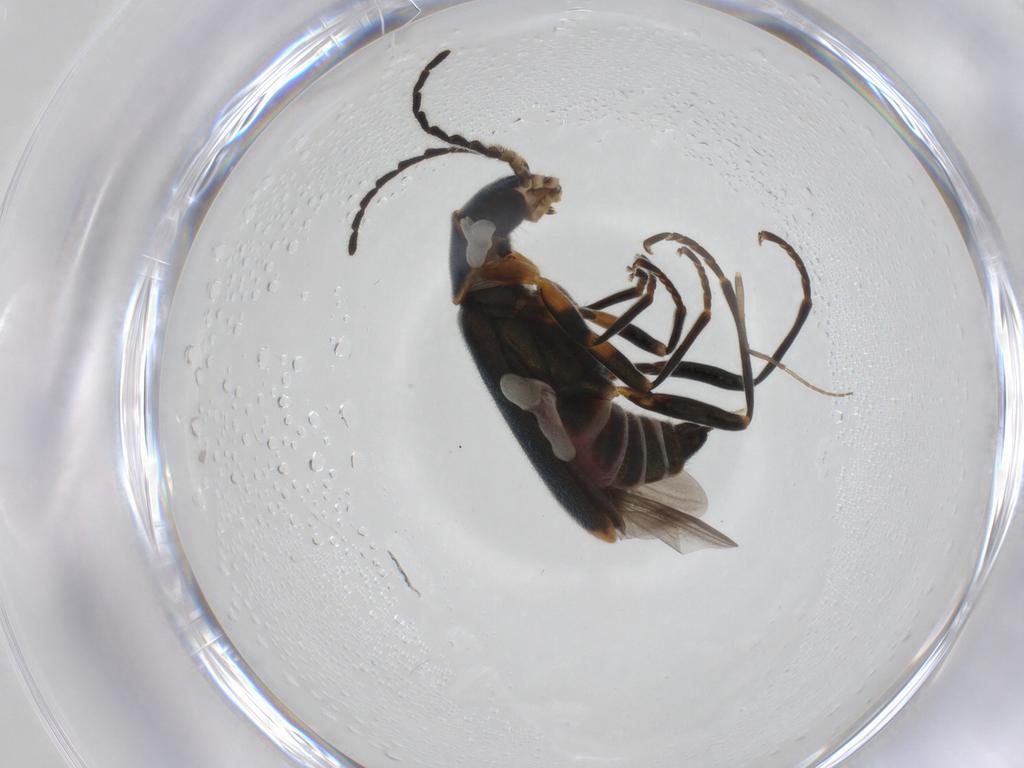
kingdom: Animalia
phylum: Arthropoda
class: Insecta
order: Coleoptera
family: Melyridae
